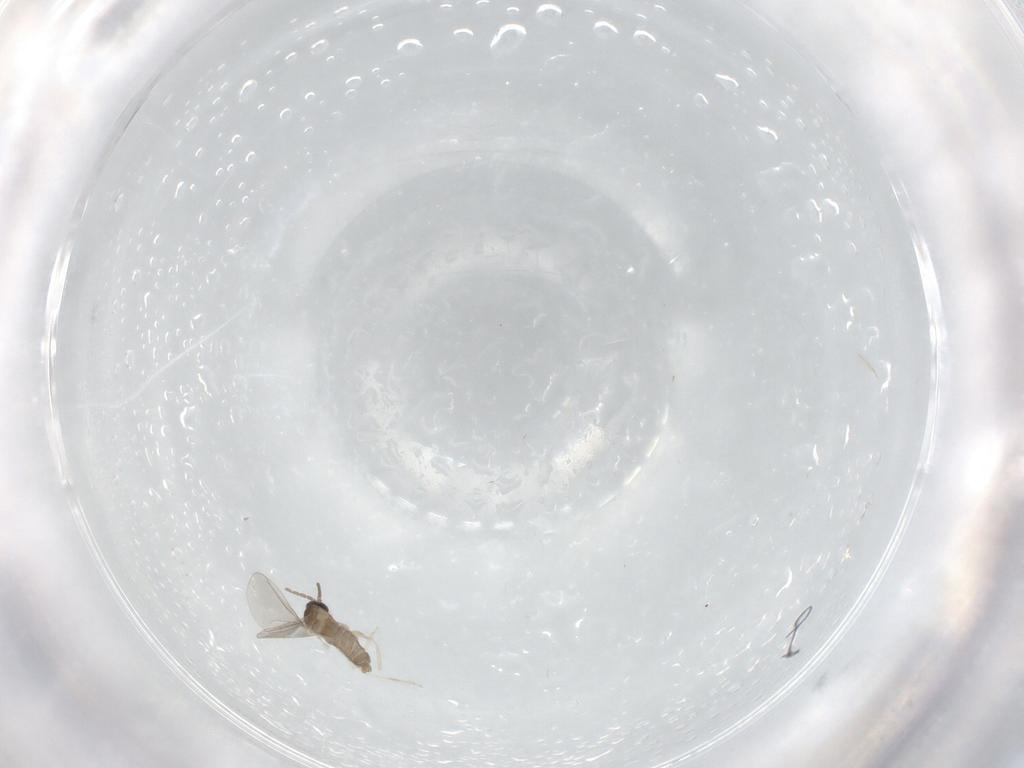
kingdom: Animalia
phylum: Arthropoda
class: Insecta
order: Diptera
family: Cecidomyiidae
